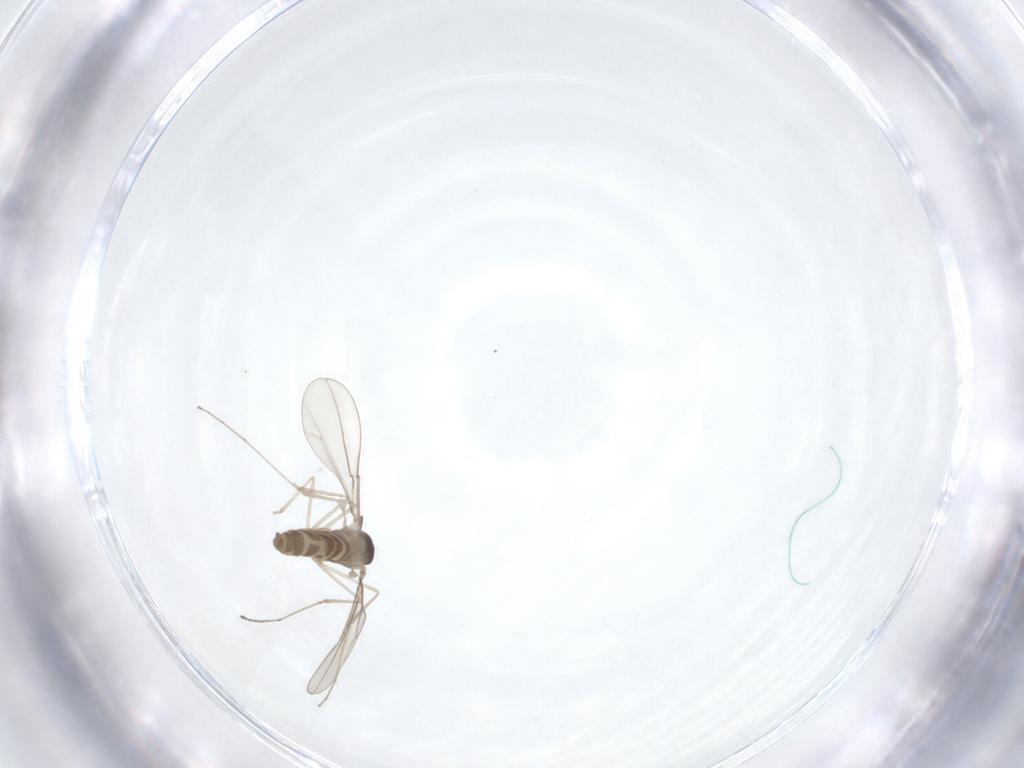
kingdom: Animalia
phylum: Arthropoda
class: Insecta
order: Diptera
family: Cecidomyiidae
